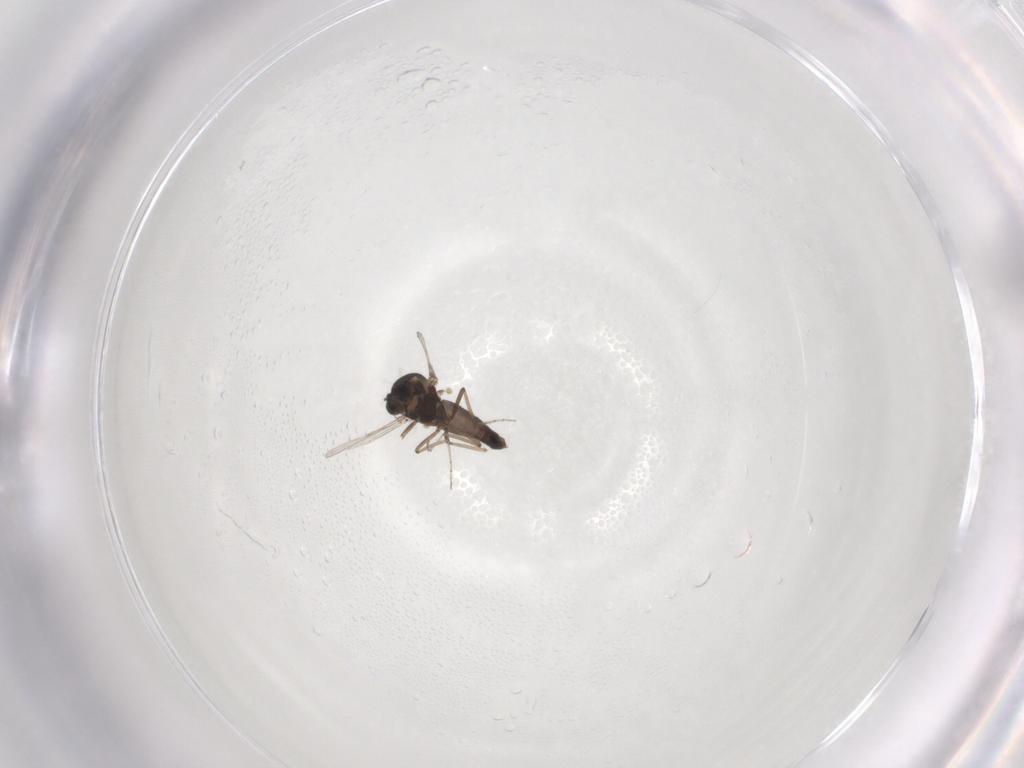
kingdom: Animalia
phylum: Arthropoda
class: Insecta
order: Diptera
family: Ceratopogonidae
